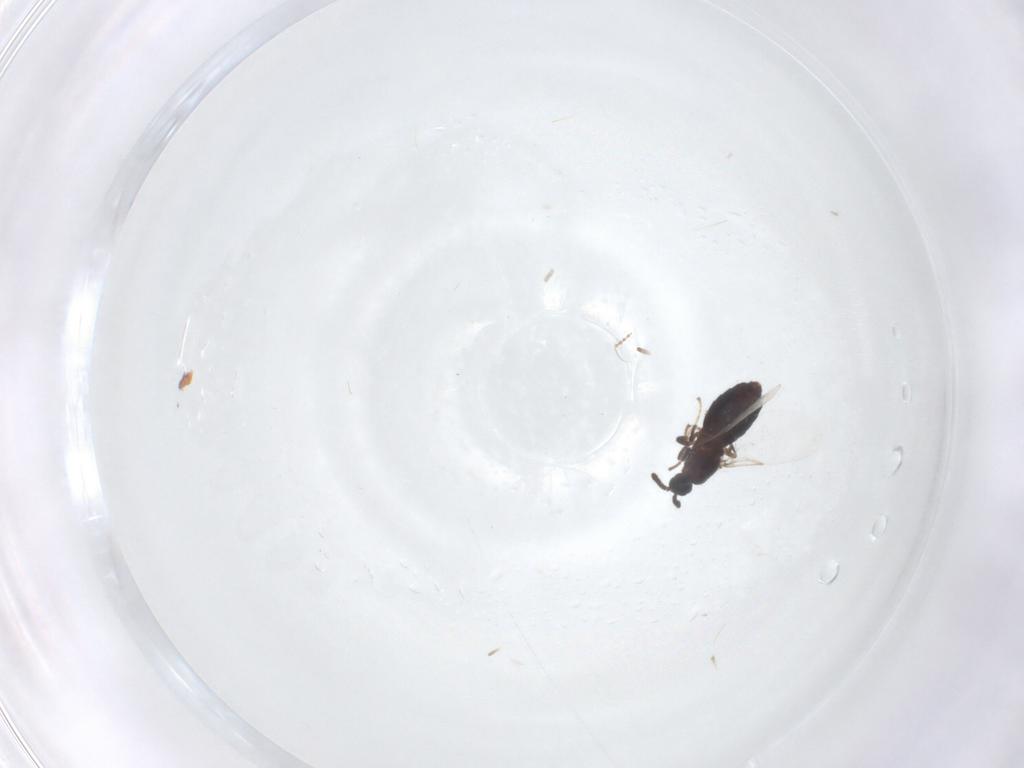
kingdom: Animalia
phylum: Arthropoda
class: Insecta
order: Diptera
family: Scatopsidae
